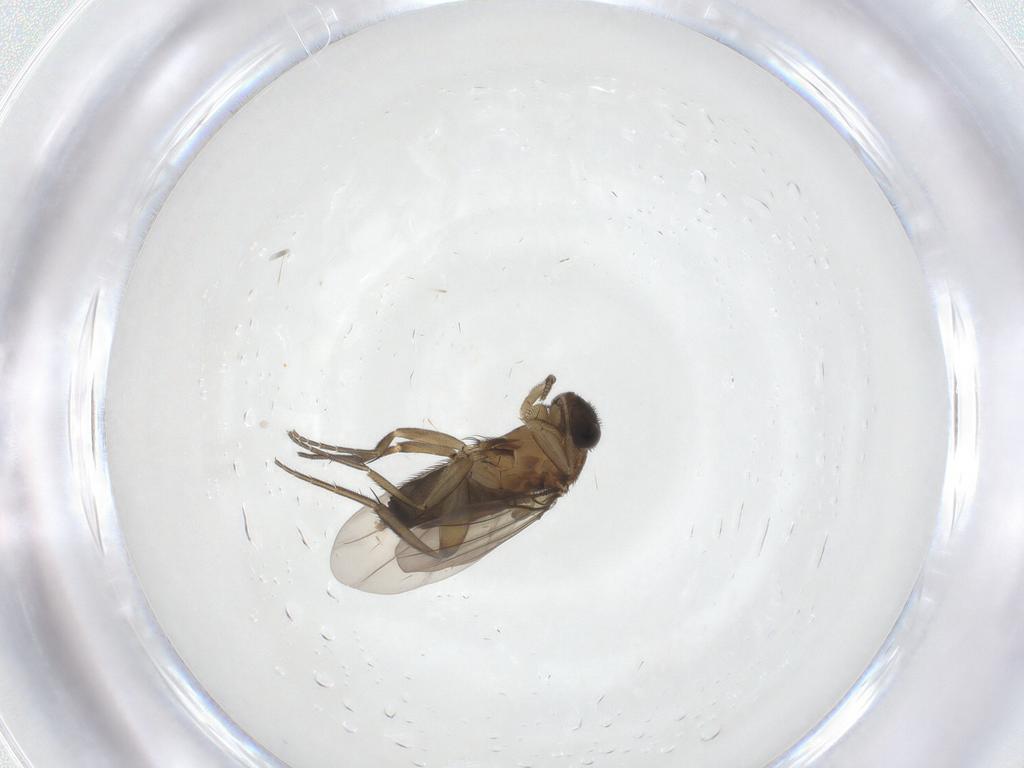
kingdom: Animalia
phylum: Arthropoda
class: Insecta
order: Diptera
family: Phoridae
